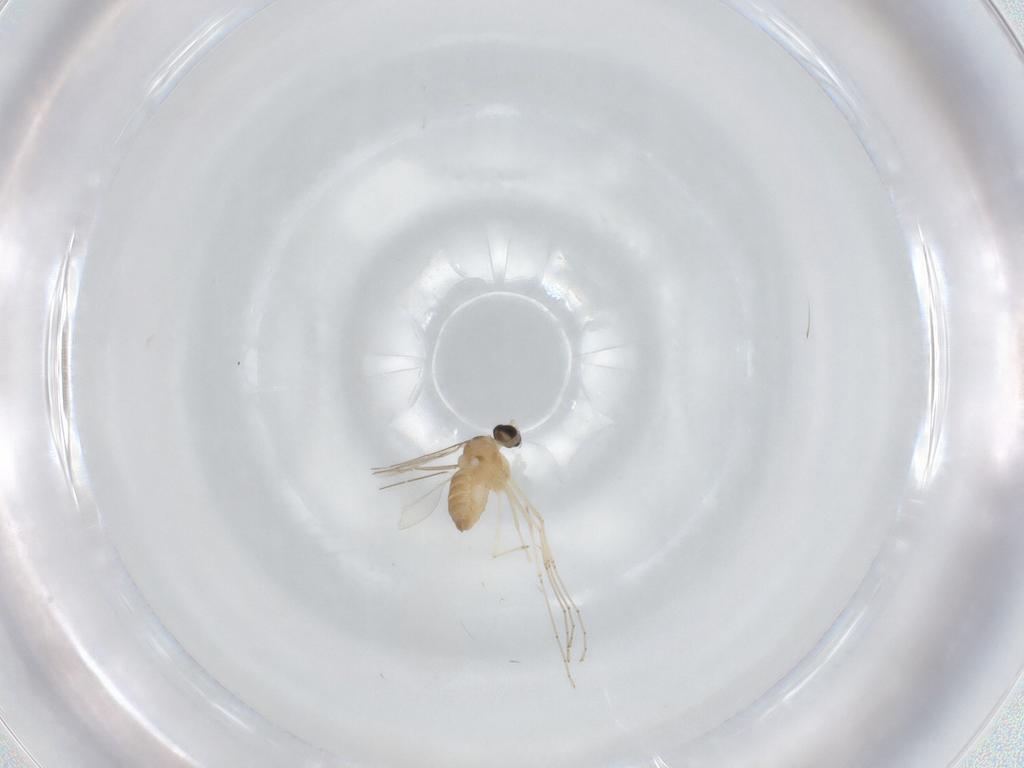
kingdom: Animalia
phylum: Arthropoda
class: Insecta
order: Diptera
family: Cecidomyiidae
